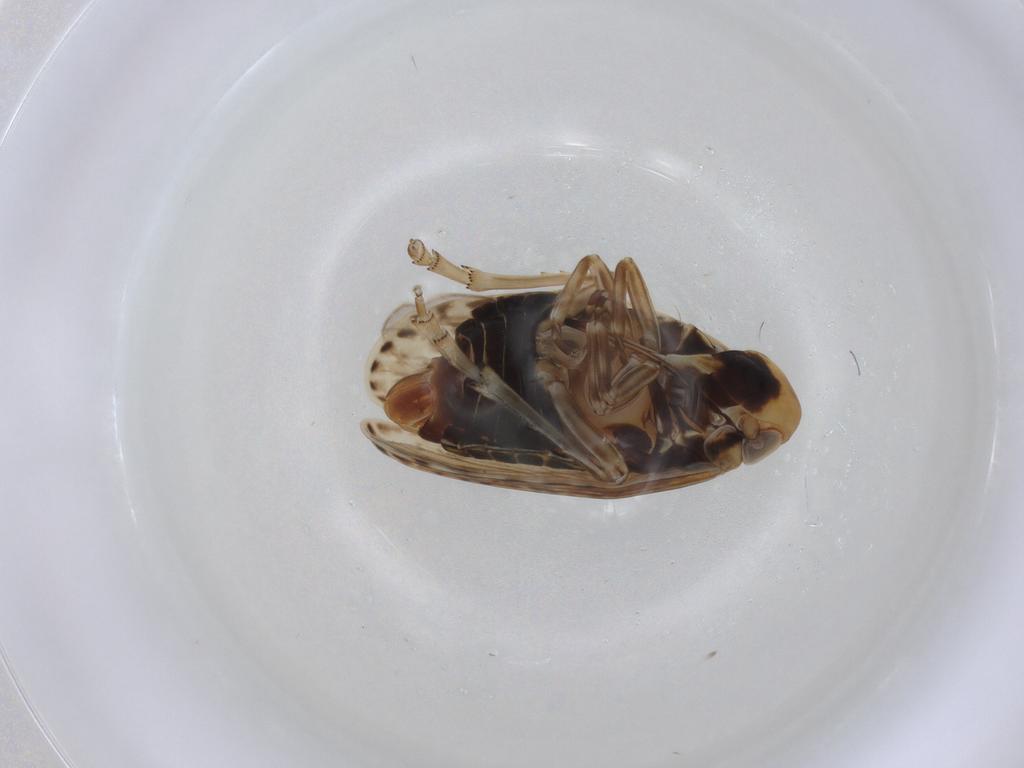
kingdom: Animalia
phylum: Arthropoda
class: Insecta
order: Hemiptera
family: Achilidae
